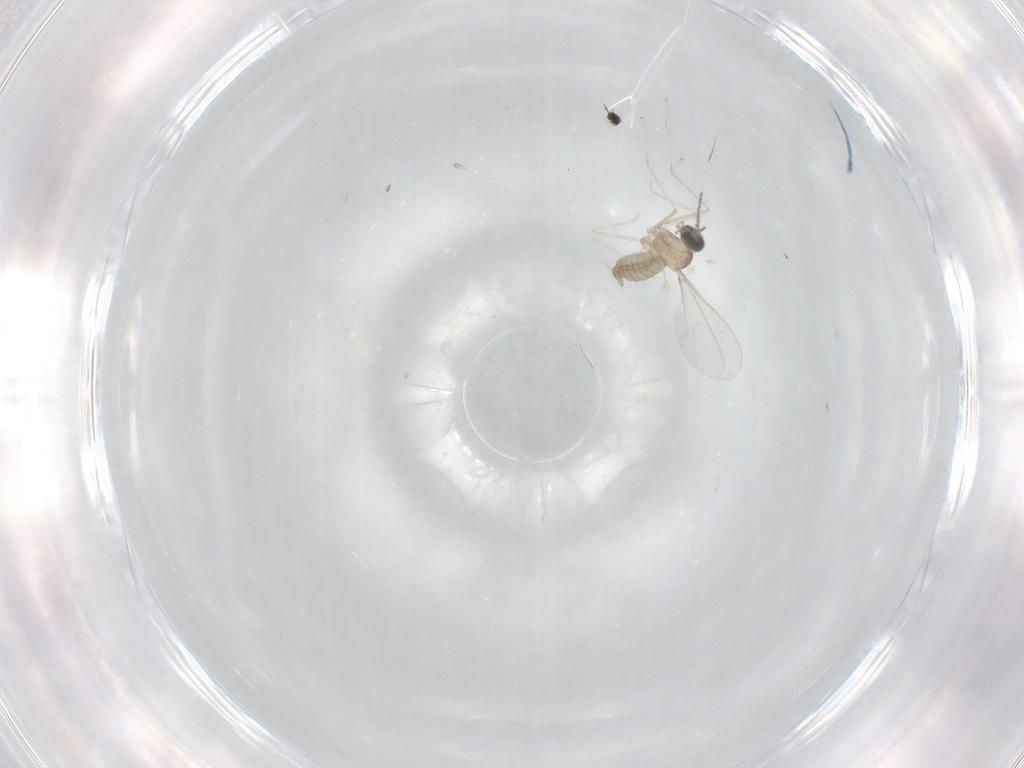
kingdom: Animalia
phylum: Arthropoda
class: Insecta
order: Diptera
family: Cecidomyiidae
